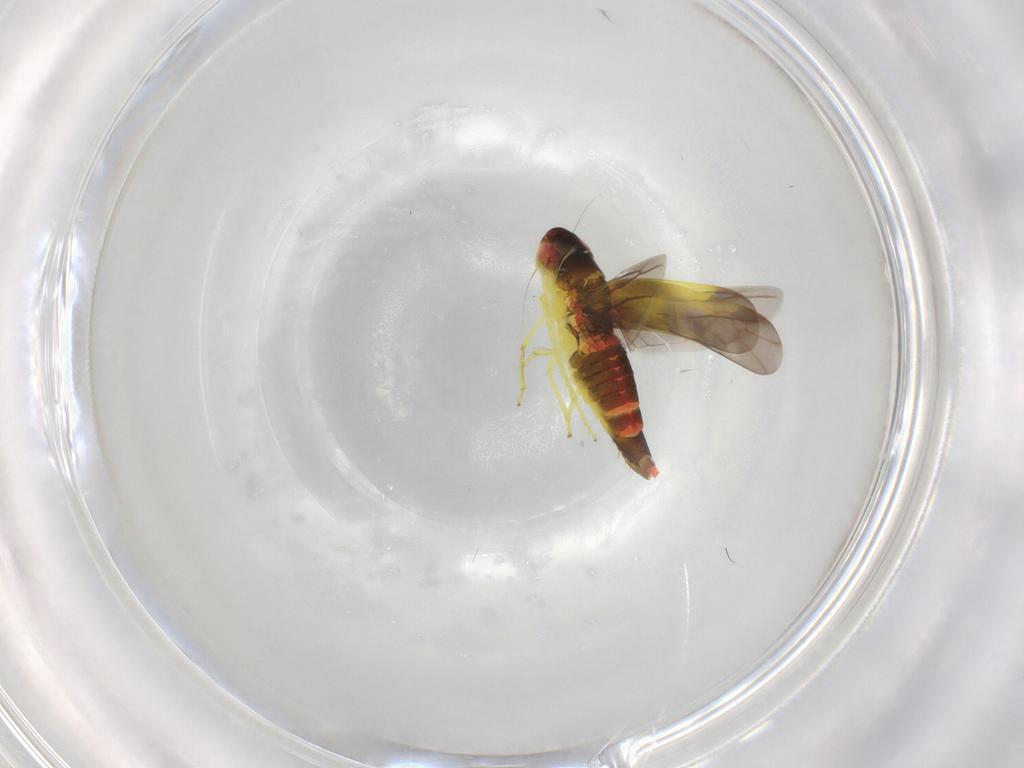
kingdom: Animalia
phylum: Arthropoda
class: Insecta
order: Hemiptera
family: Cicadellidae
